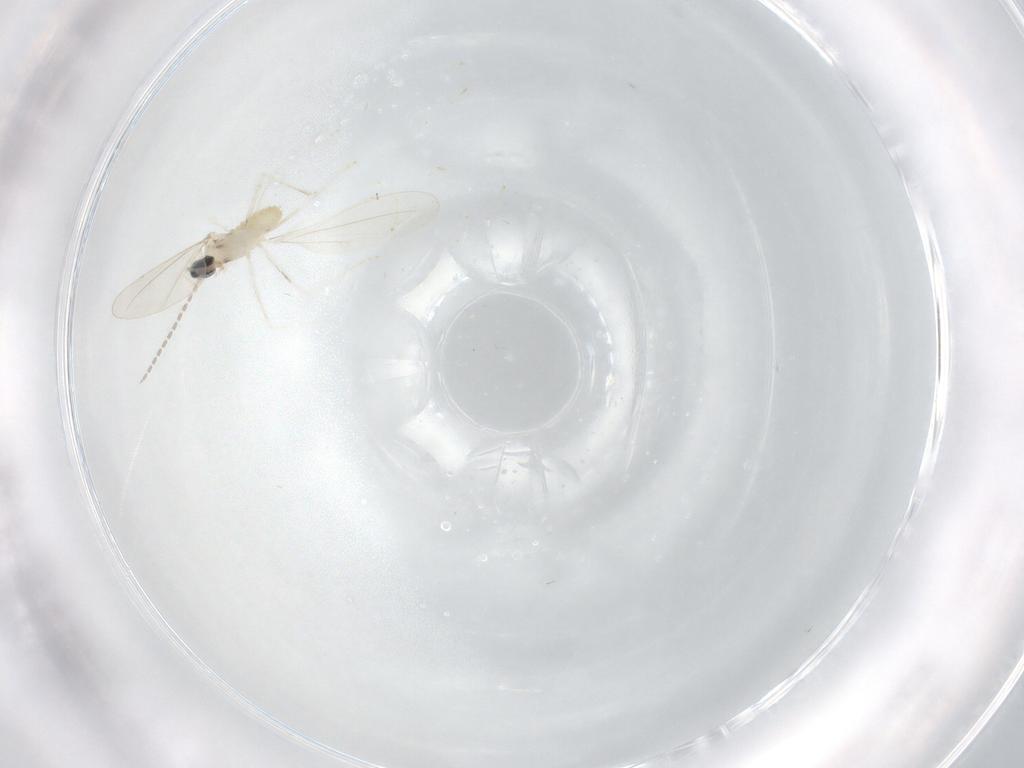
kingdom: Animalia
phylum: Arthropoda
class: Insecta
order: Diptera
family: Cecidomyiidae
